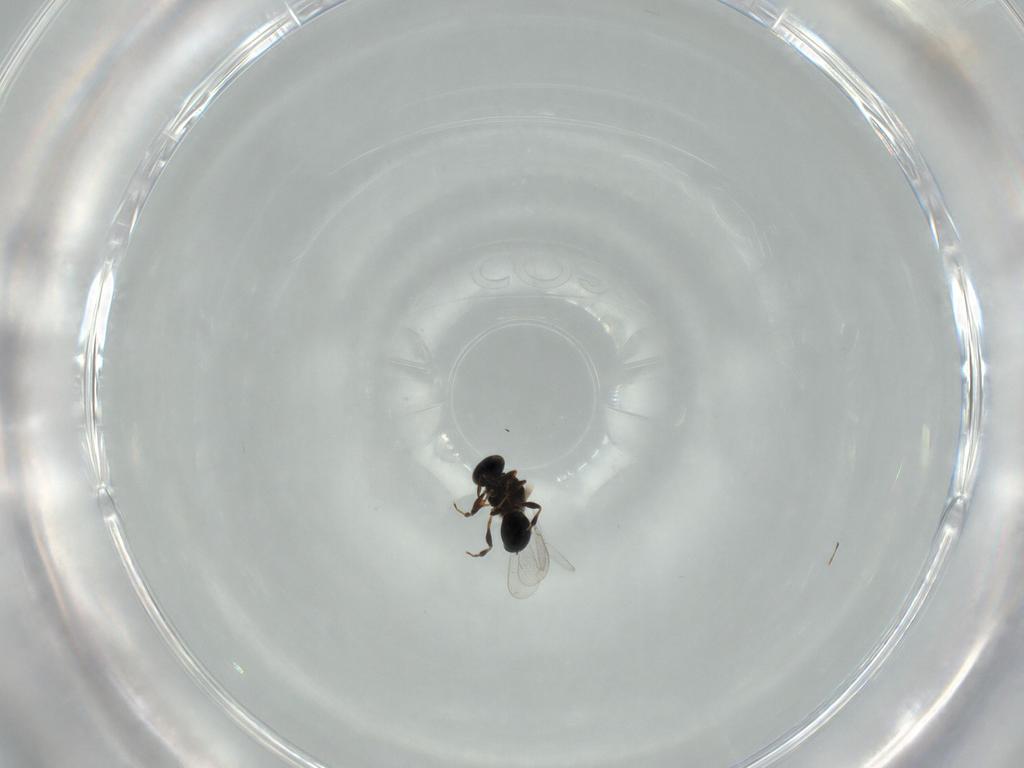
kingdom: Animalia
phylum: Arthropoda
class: Insecta
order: Hymenoptera
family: Platygastridae
